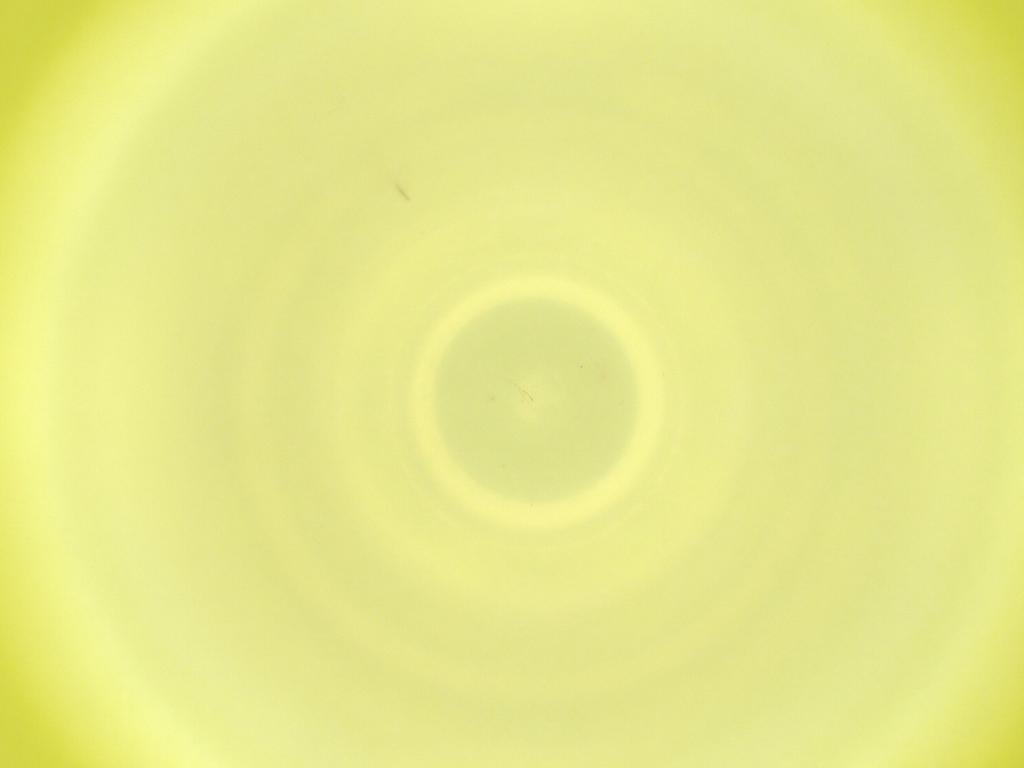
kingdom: Animalia
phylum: Arthropoda
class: Insecta
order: Diptera
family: Cecidomyiidae
